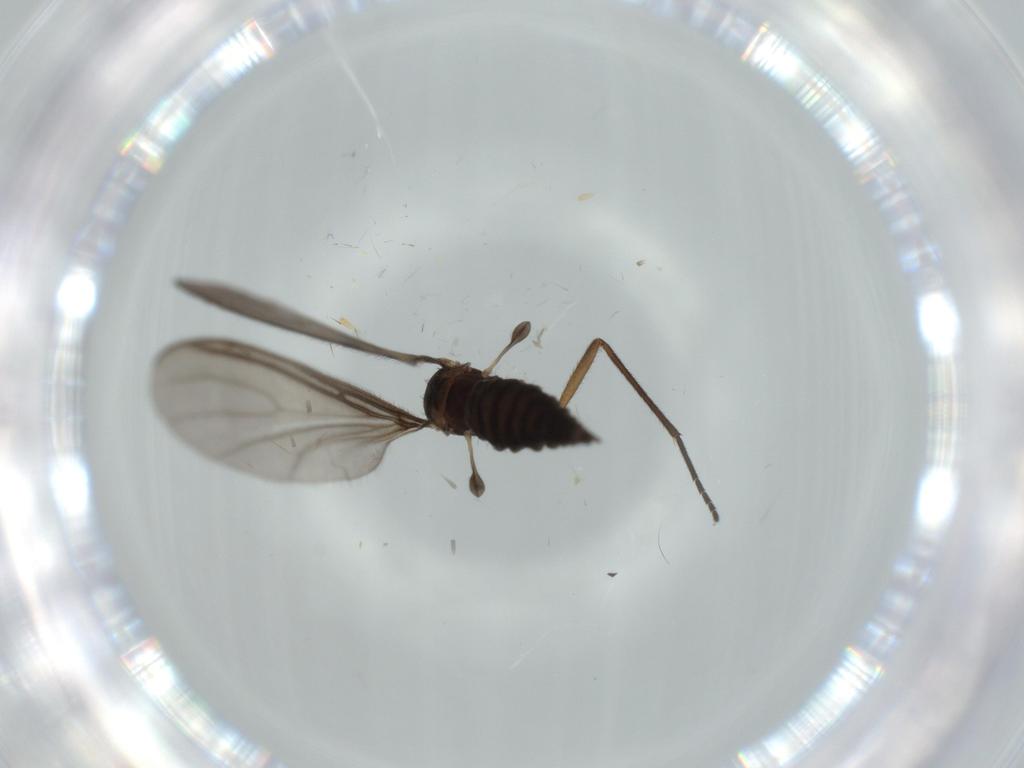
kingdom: Animalia
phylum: Arthropoda
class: Insecta
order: Diptera
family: Sciaridae
